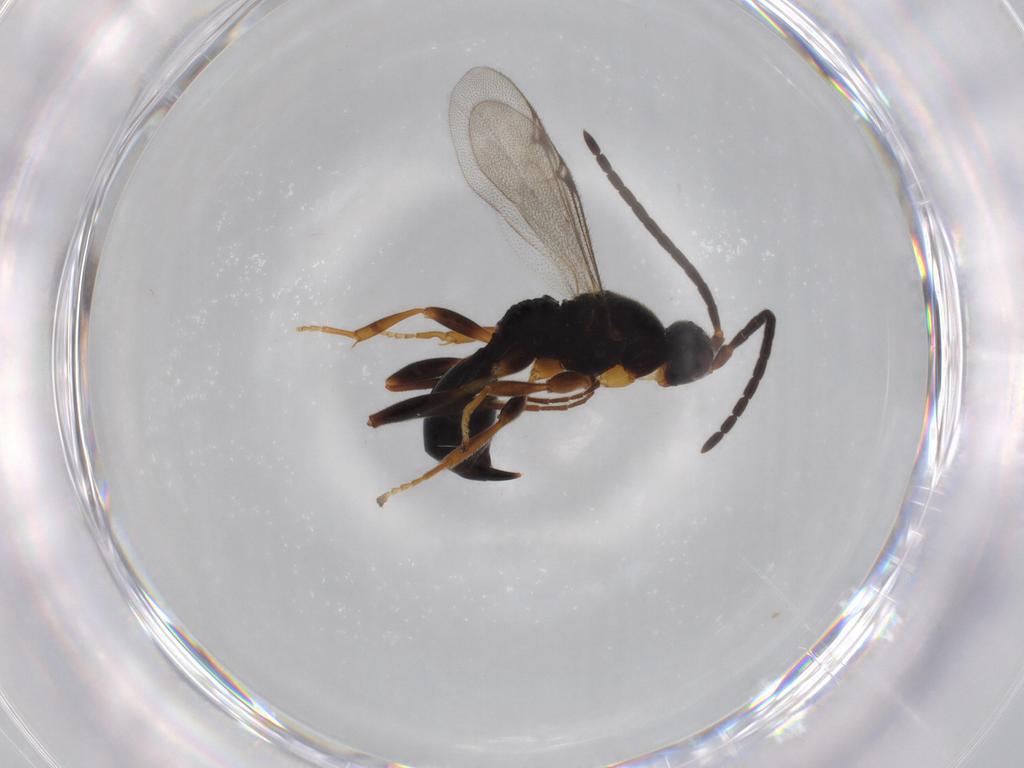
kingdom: Animalia
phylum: Arthropoda
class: Insecta
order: Hymenoptera
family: Proctotrupidae
